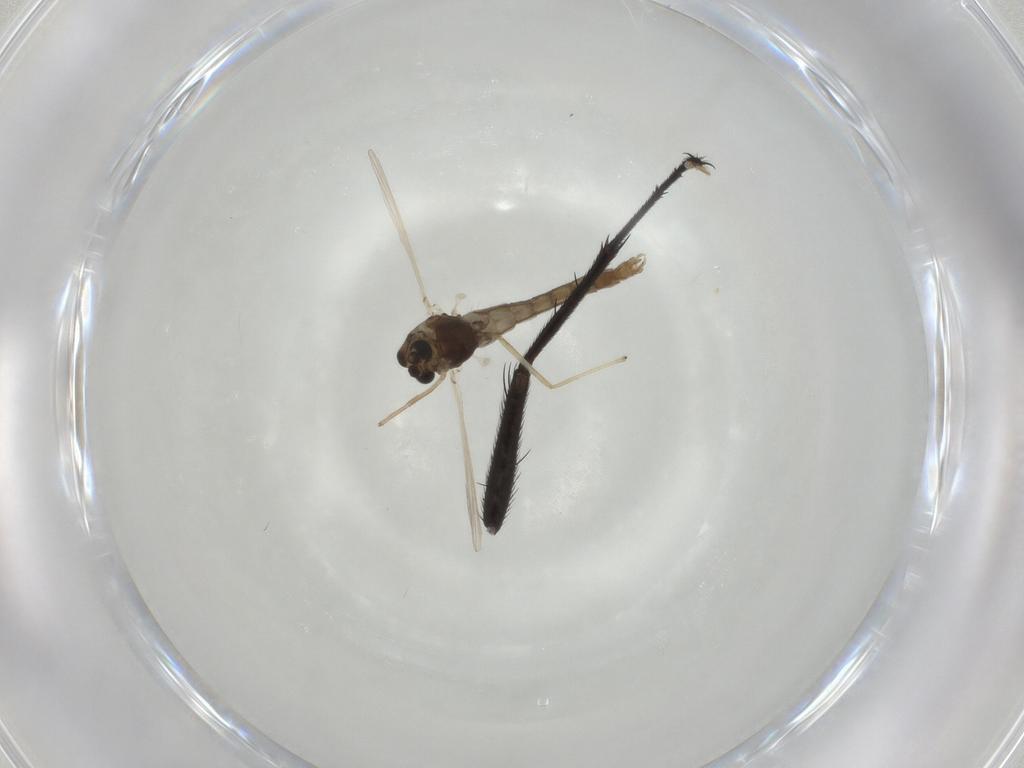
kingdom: Animalia
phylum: Arthropoda
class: Insecta
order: Diptera
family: Muscidae
